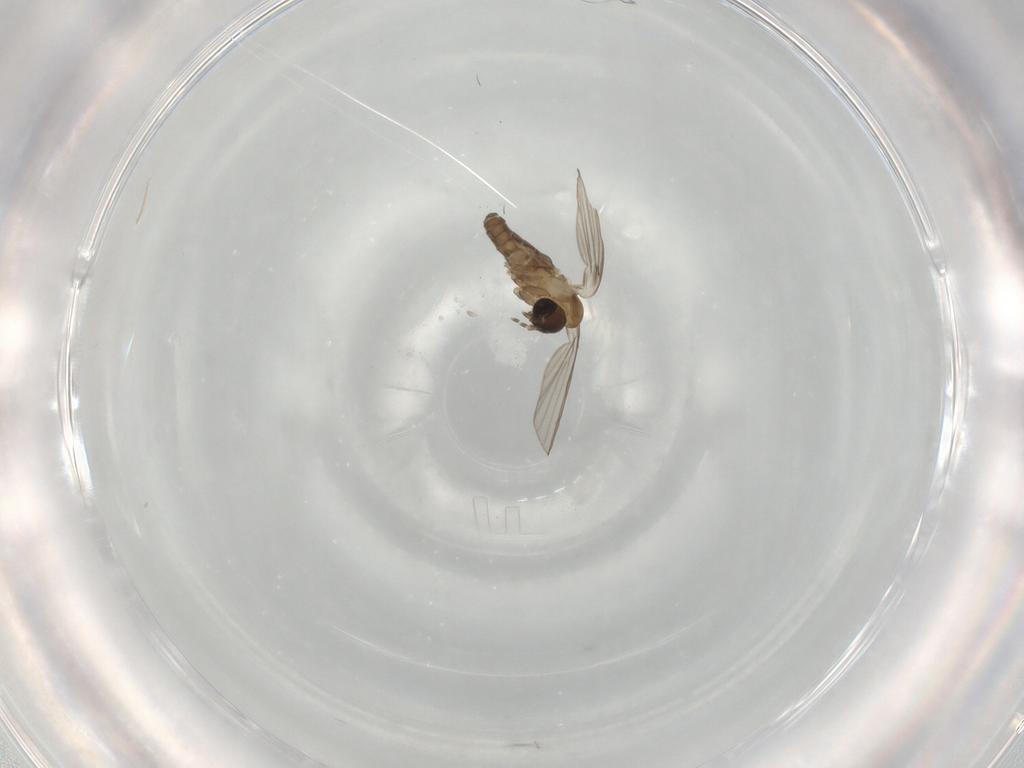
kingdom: Animalia
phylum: Arthropoda
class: Insecta
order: Diptera
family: Psychodidae
